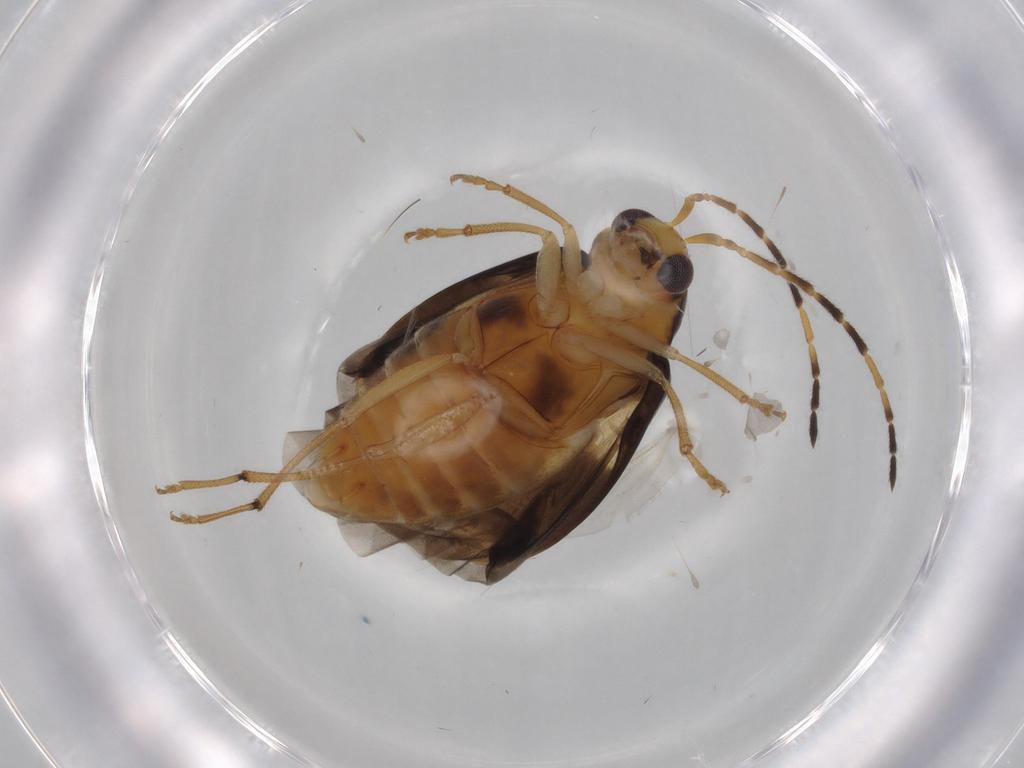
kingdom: Animalia
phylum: Arthropoda
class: Insecta
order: Coleoptera
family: Chrysomelidae
